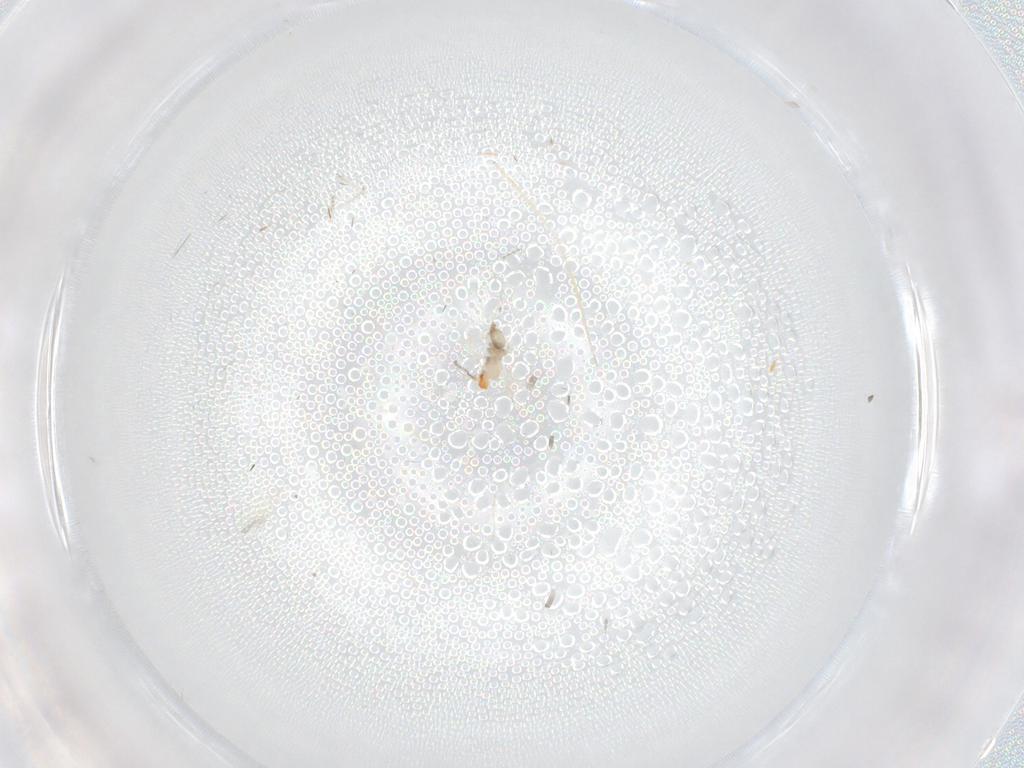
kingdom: Animalia
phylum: Arthropoda
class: Insecta
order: Diptera
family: Cecidomyiidae
